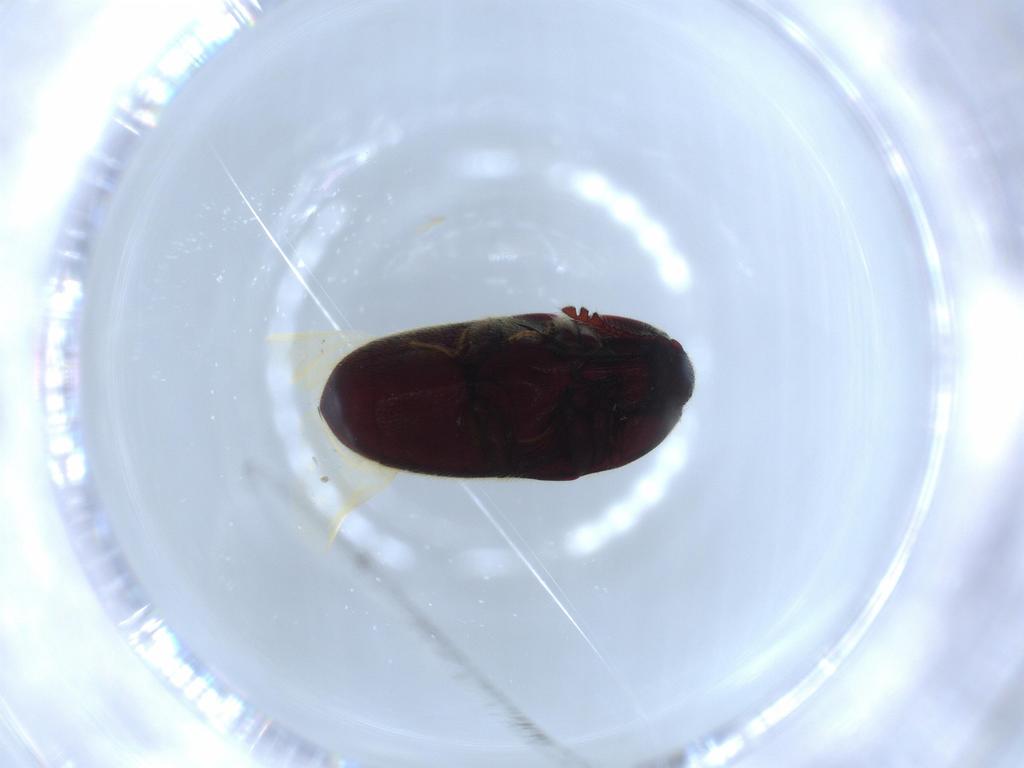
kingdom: Animalia
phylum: Arthropoda
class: Insecta
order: Coleoptera
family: Throscidae
